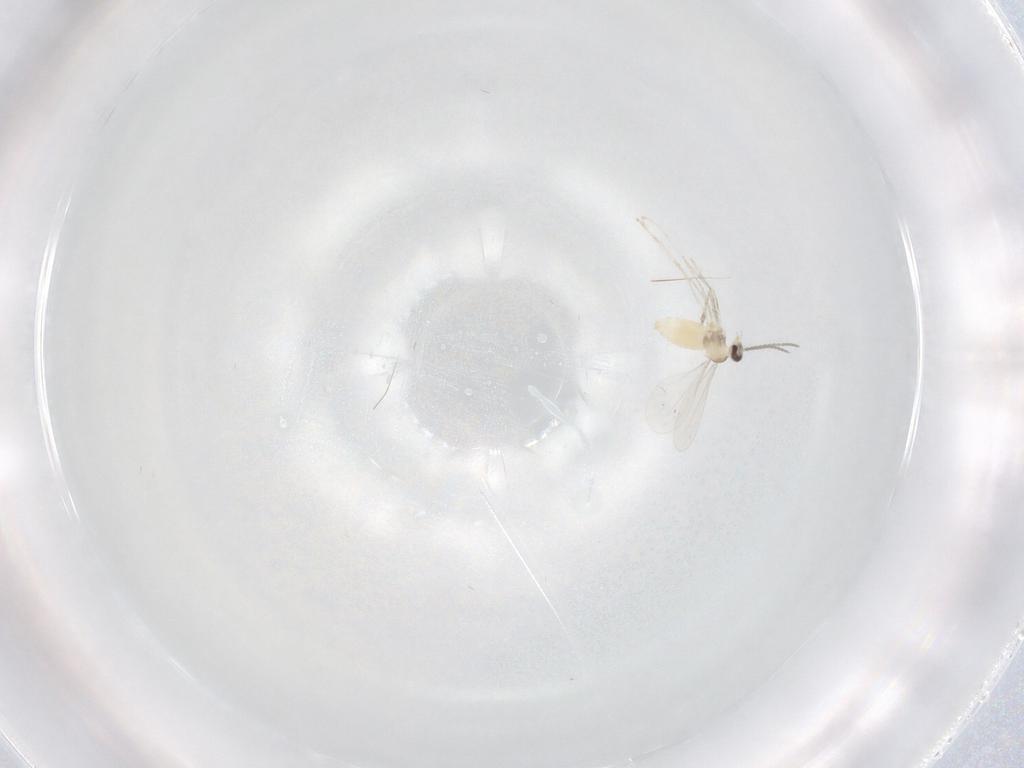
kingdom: Animalia
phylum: Arthropoda
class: Insecta
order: Diptera
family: Cecidomyiidae
